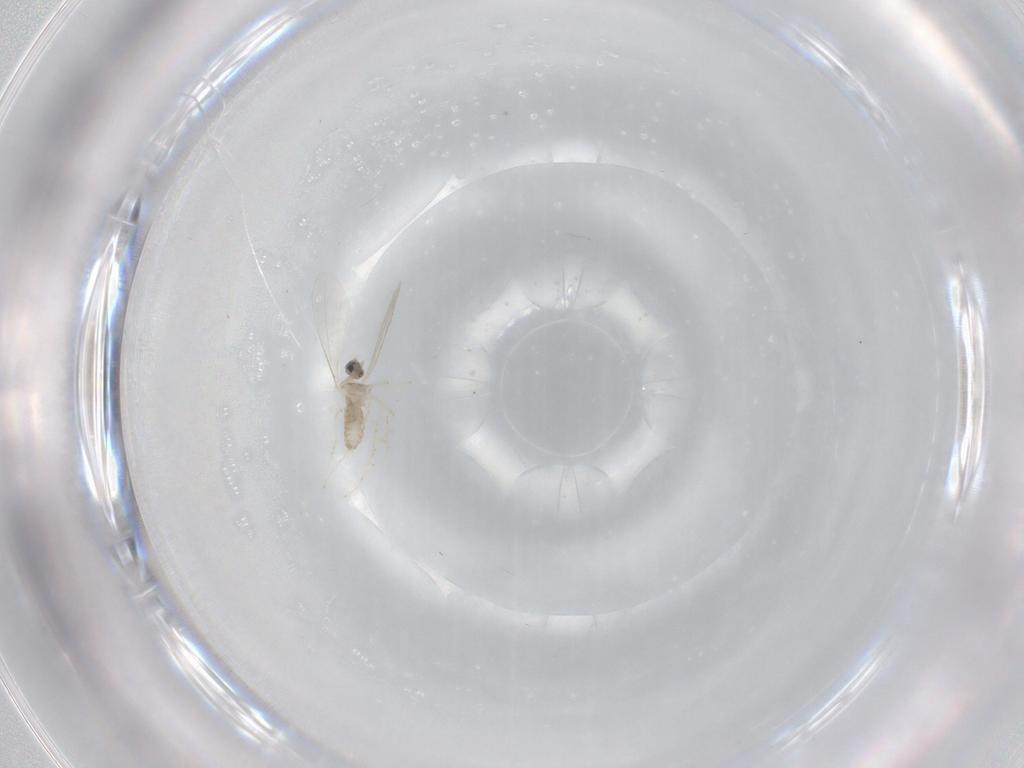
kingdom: Animalia
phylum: Arthropoda
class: Insecta
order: Diptera
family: Cecidomyiidae
